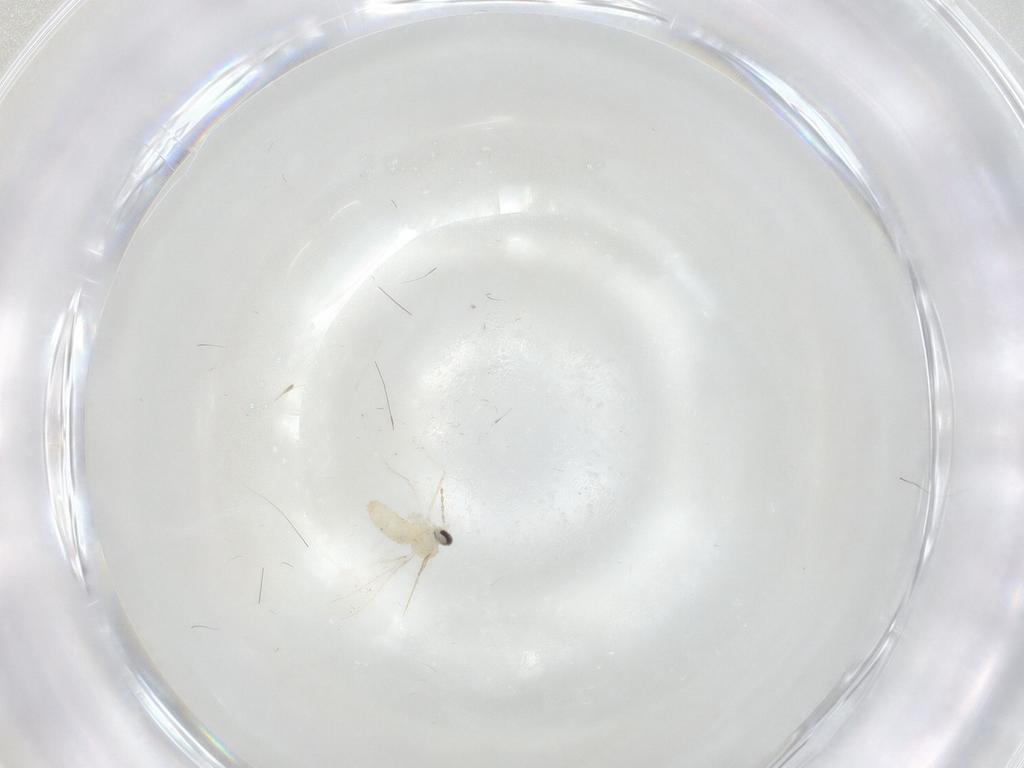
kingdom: Animalia
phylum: Arthropoda
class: Insecta
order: Diptera
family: Cecidomyiidae
